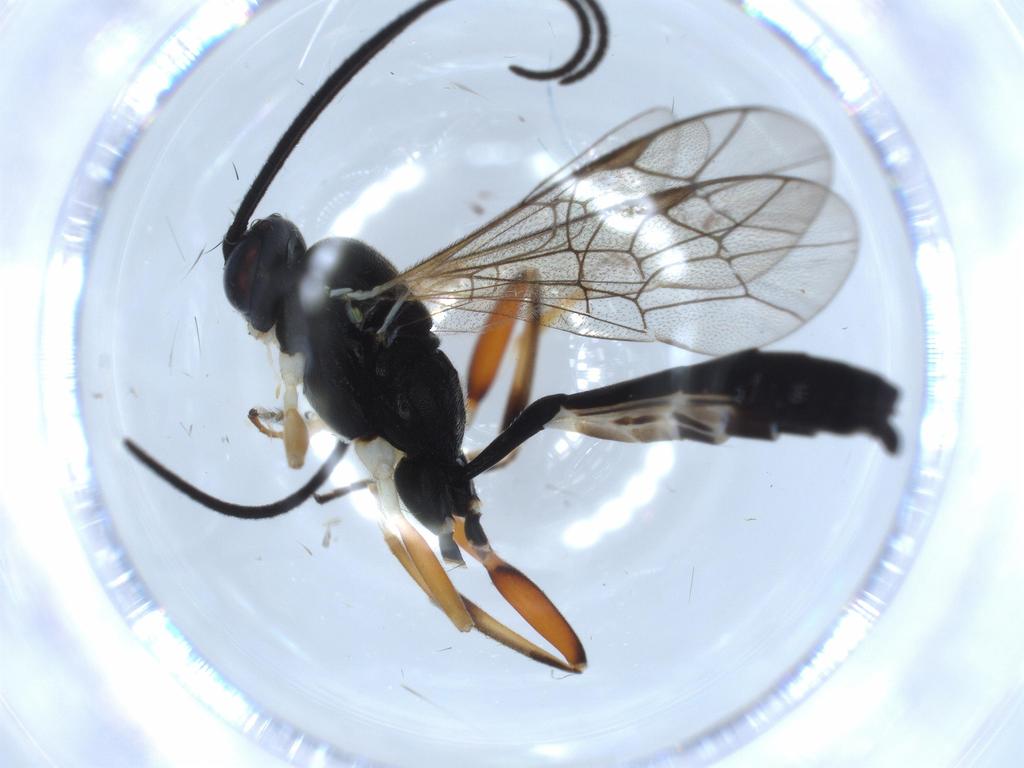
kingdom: Animalia
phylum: Arthropoda
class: Insecta
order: Hymenoptera
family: Ichneumonidae
